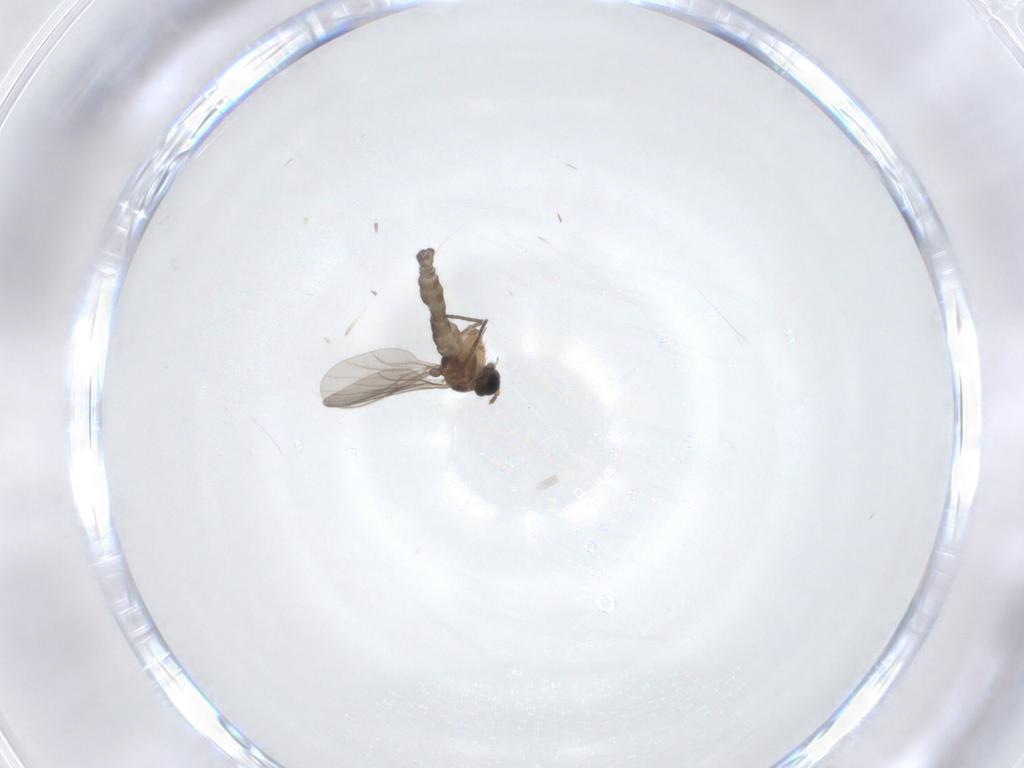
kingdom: Animalia
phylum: Arthropoda
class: Insecta
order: Diptera
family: Sciaridae
